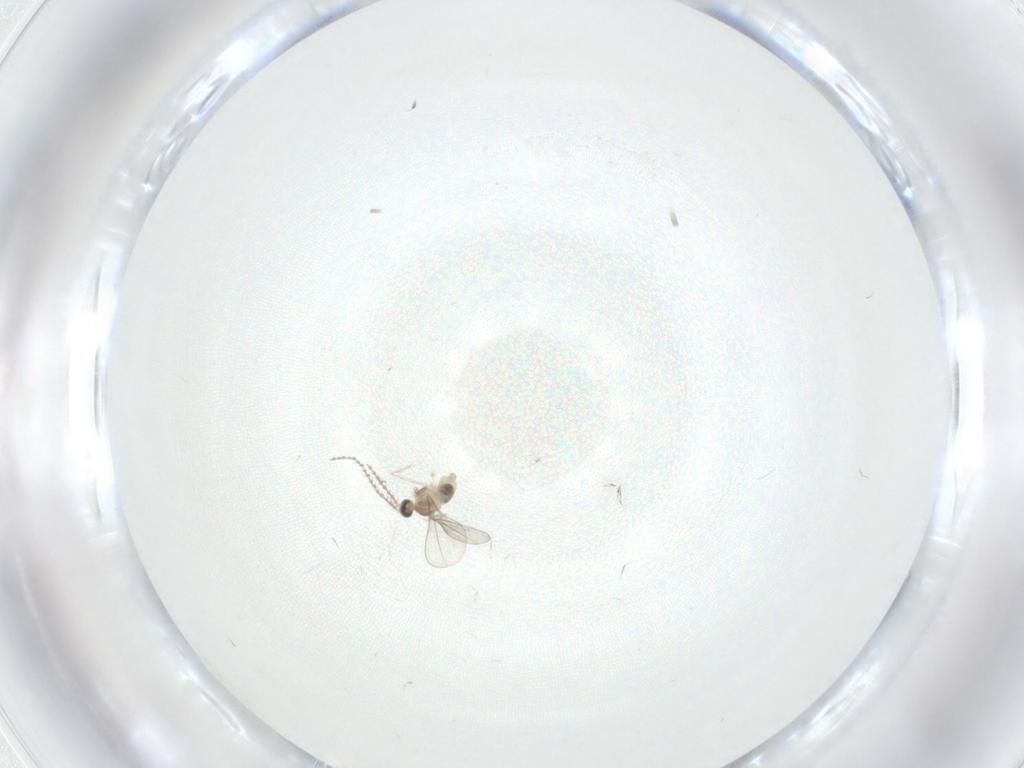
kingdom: Animalia
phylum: Arthropoda
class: Insecta
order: Diptera
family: Cecidomyiidae
